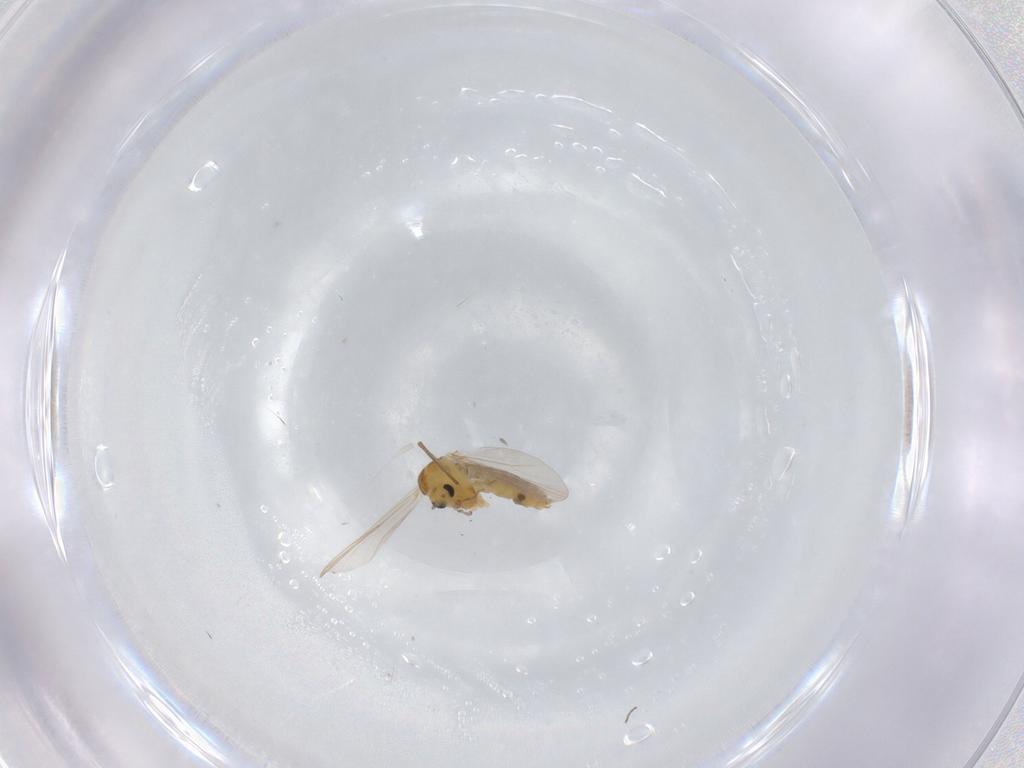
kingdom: Animalia
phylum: Arthropoda
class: Insecta
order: Diptera
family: Chironomidae
